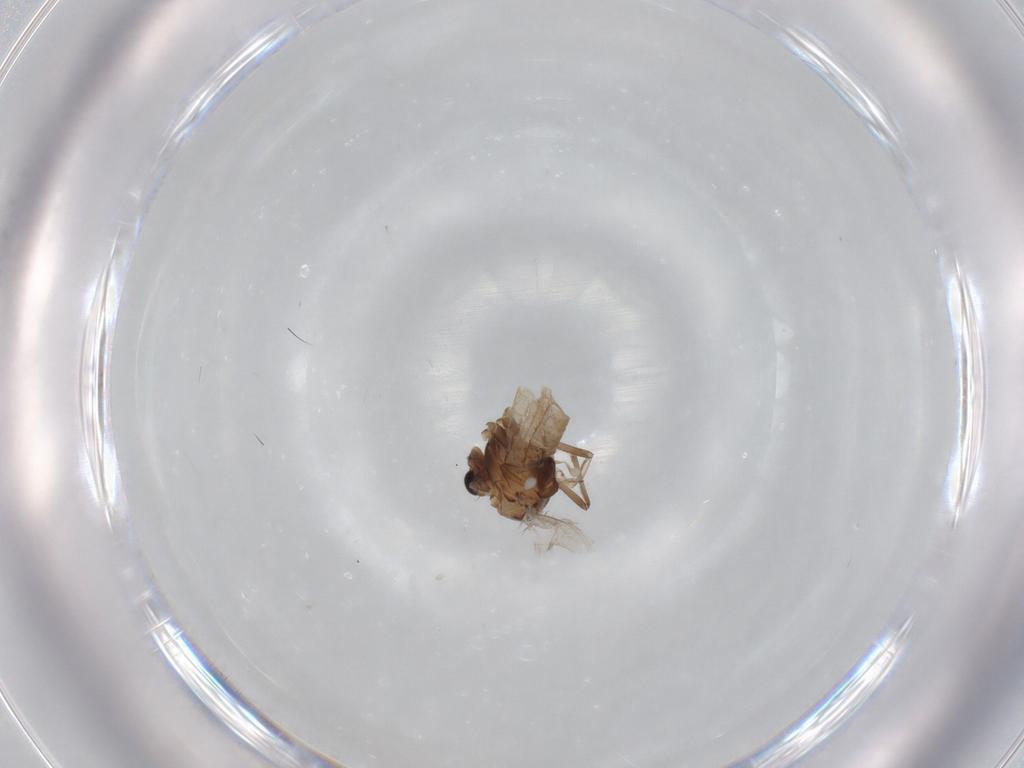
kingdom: Animalia
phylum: Arthropoda
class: Insecta
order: Diptera
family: Chironomidae
